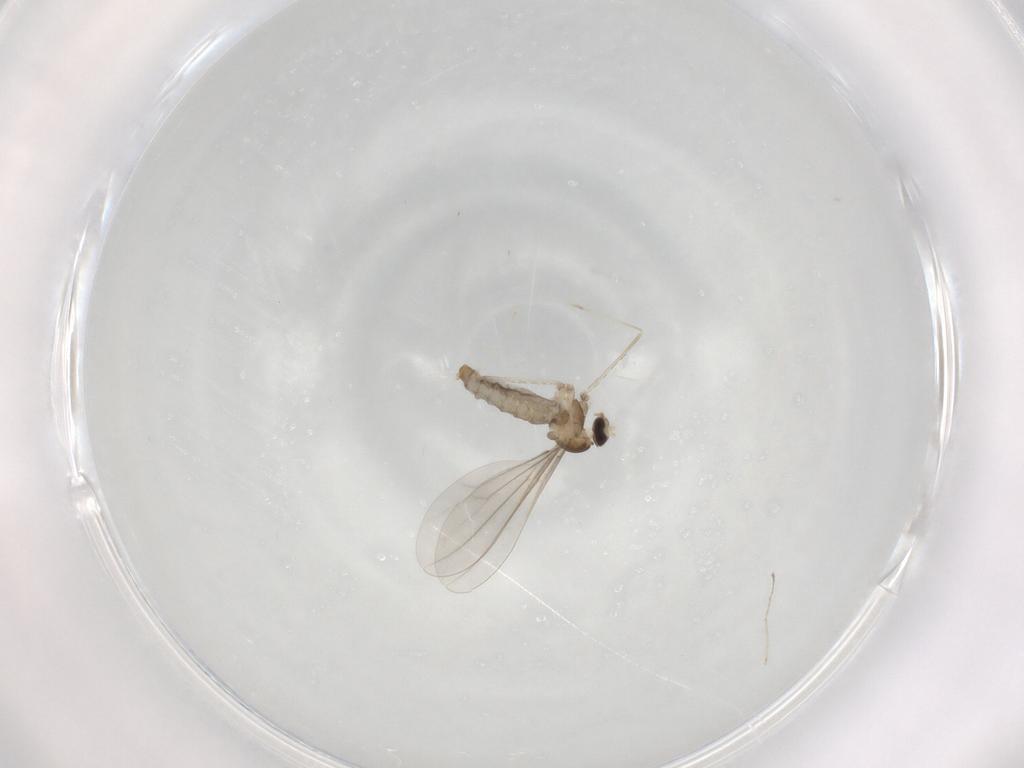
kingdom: Animalia
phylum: Arthropoda
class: Insecta
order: Diptera
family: Cecidomyiidae
